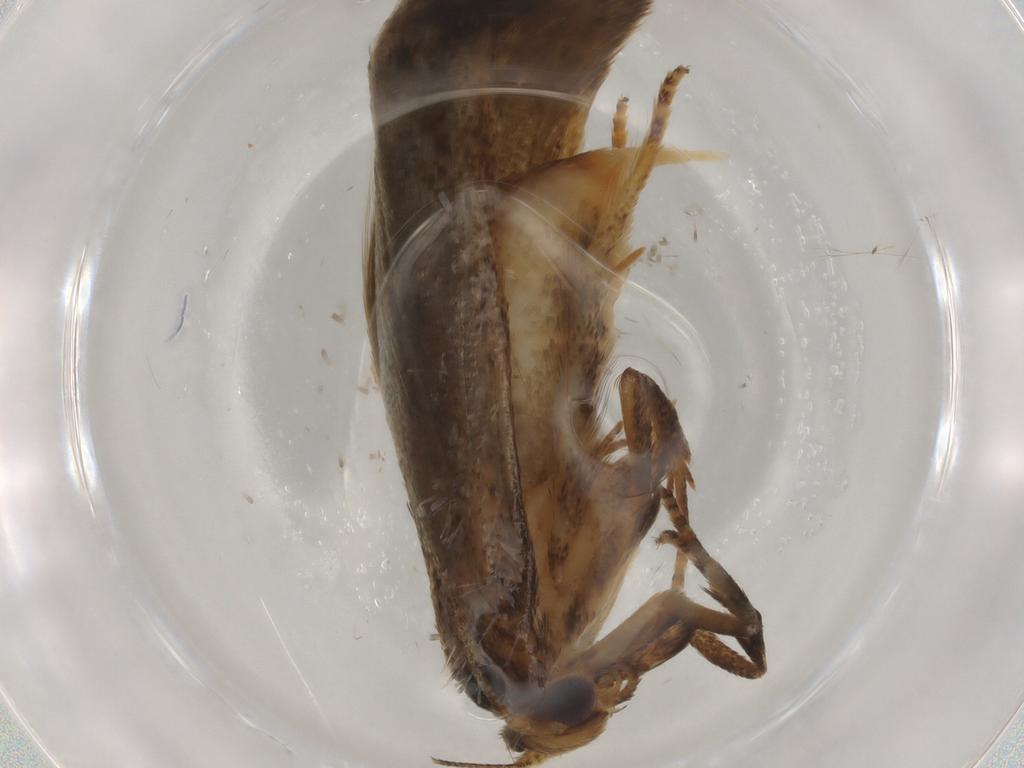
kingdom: Animalia
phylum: Arthropoda
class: Insecta
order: Lepidoptera
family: Blastobasidae
